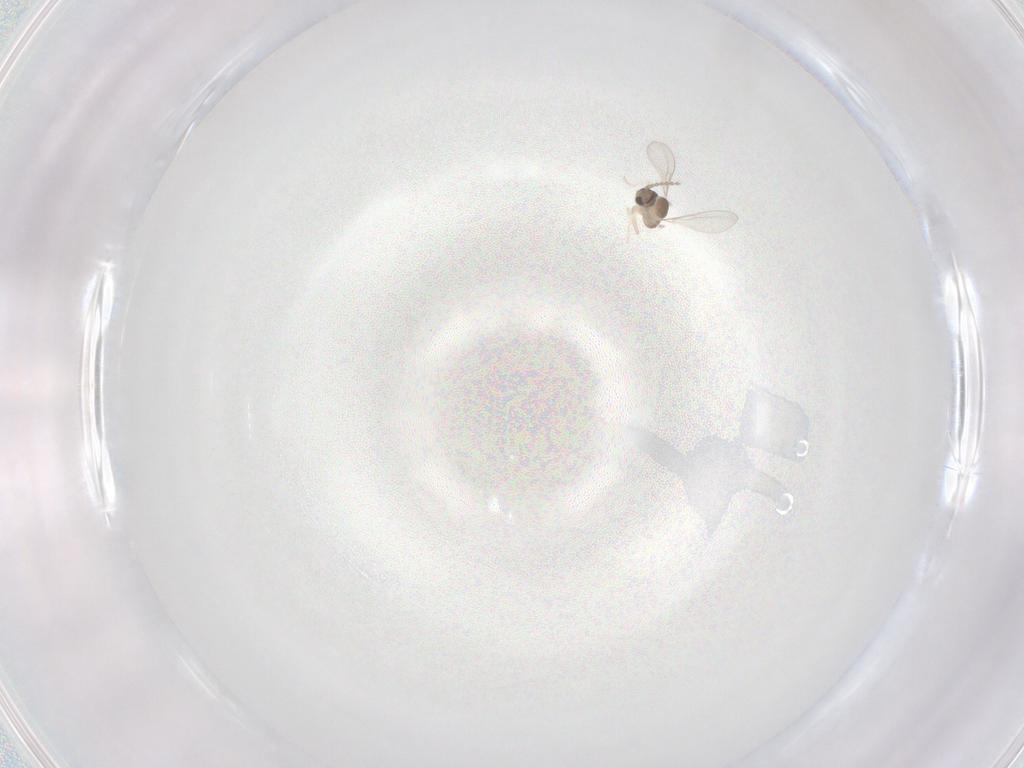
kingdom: Animalia
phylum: Arthropoda
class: Insecta
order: Diptera
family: Cecidomyiidae
